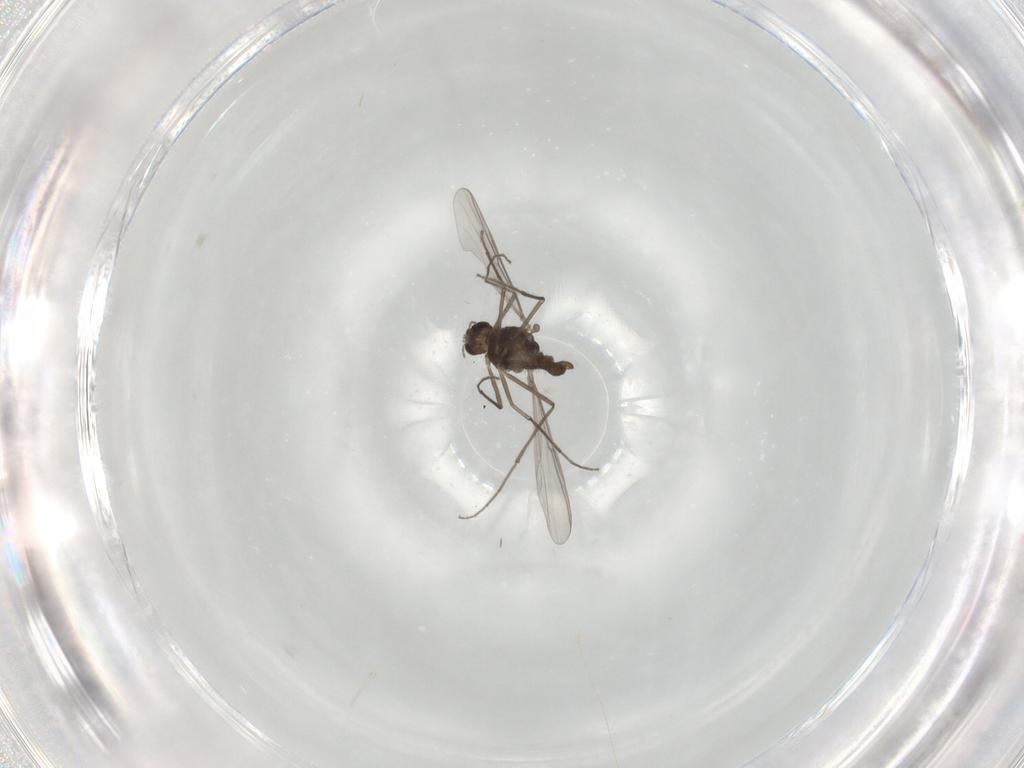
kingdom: Animalia
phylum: Arthropoda
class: Insecta
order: Diptera
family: Chironomidae
